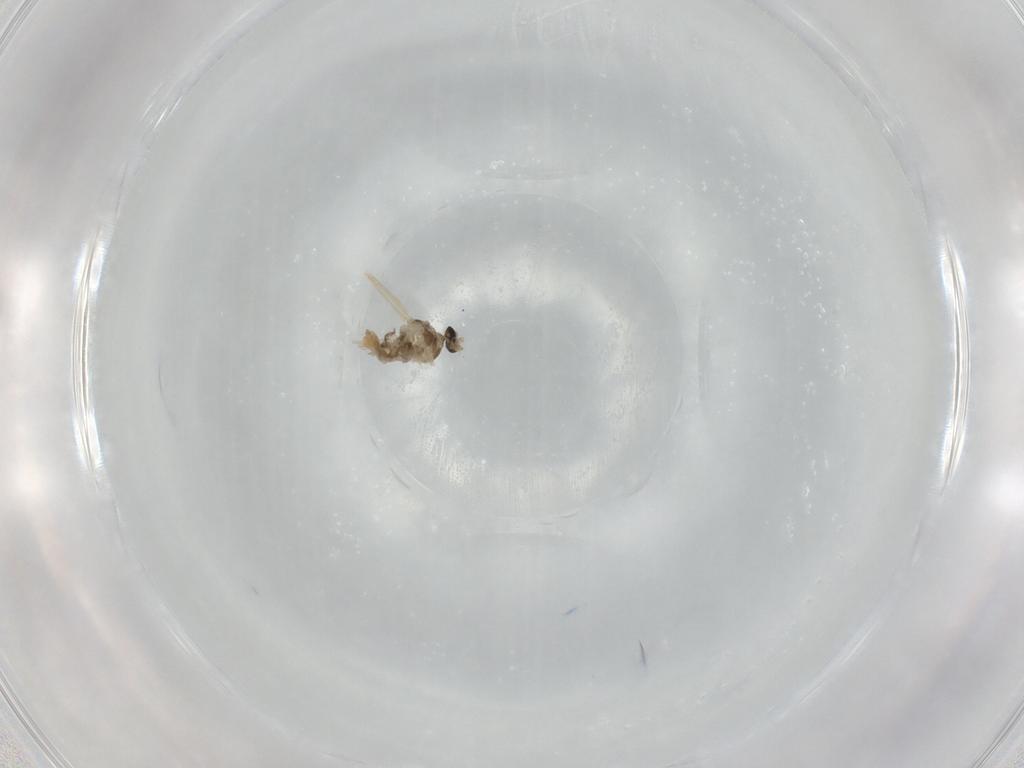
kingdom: Animalia
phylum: Arthropoda
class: Insecta
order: Diptera
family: Cecidomyiidae
